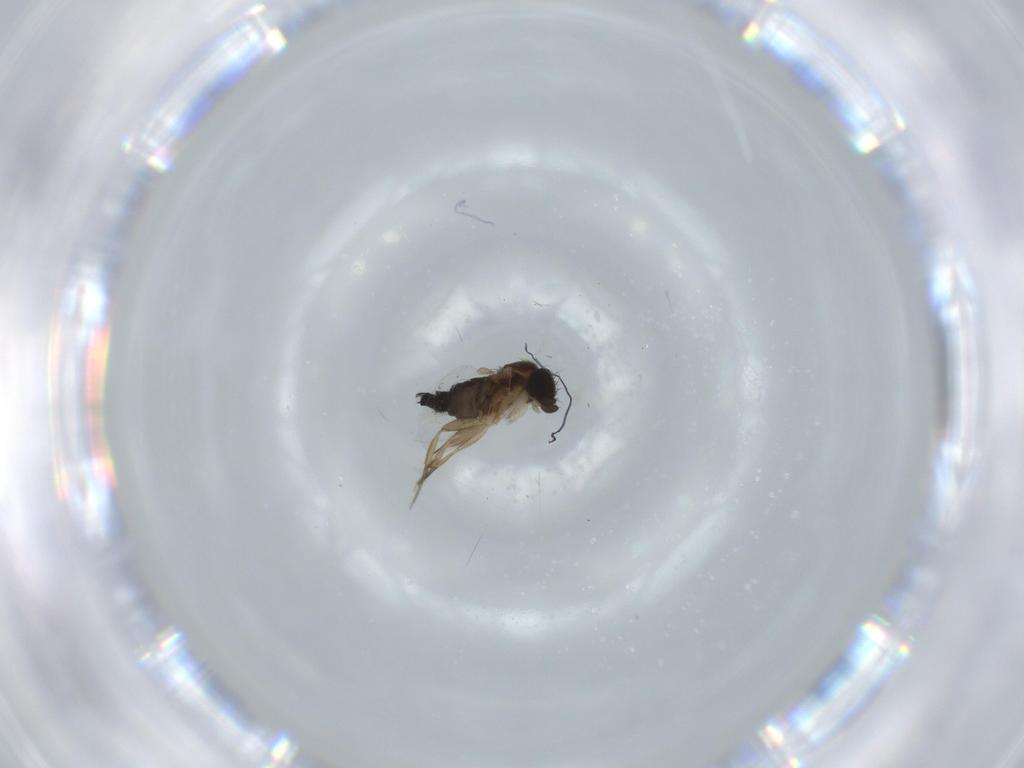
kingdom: Animalia
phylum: Arthropoda
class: Insecta
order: Diptera
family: Phoridae
